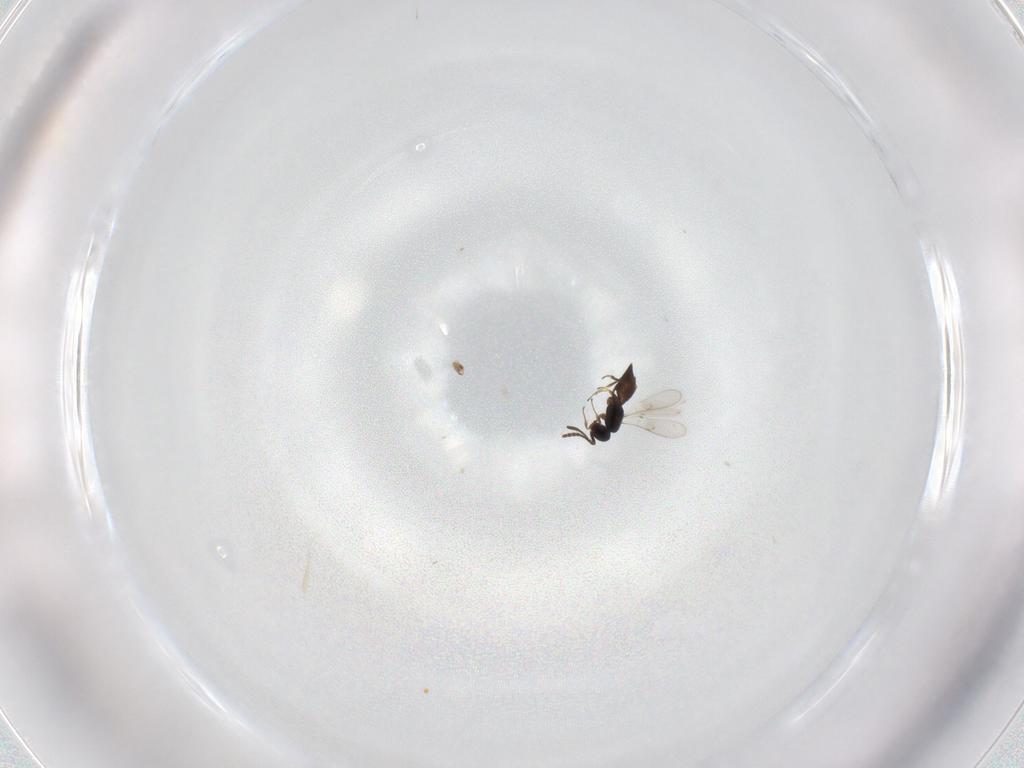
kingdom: Animalia
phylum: Arthropoda
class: Insecta
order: Hymenoptera
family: Scelionidae
